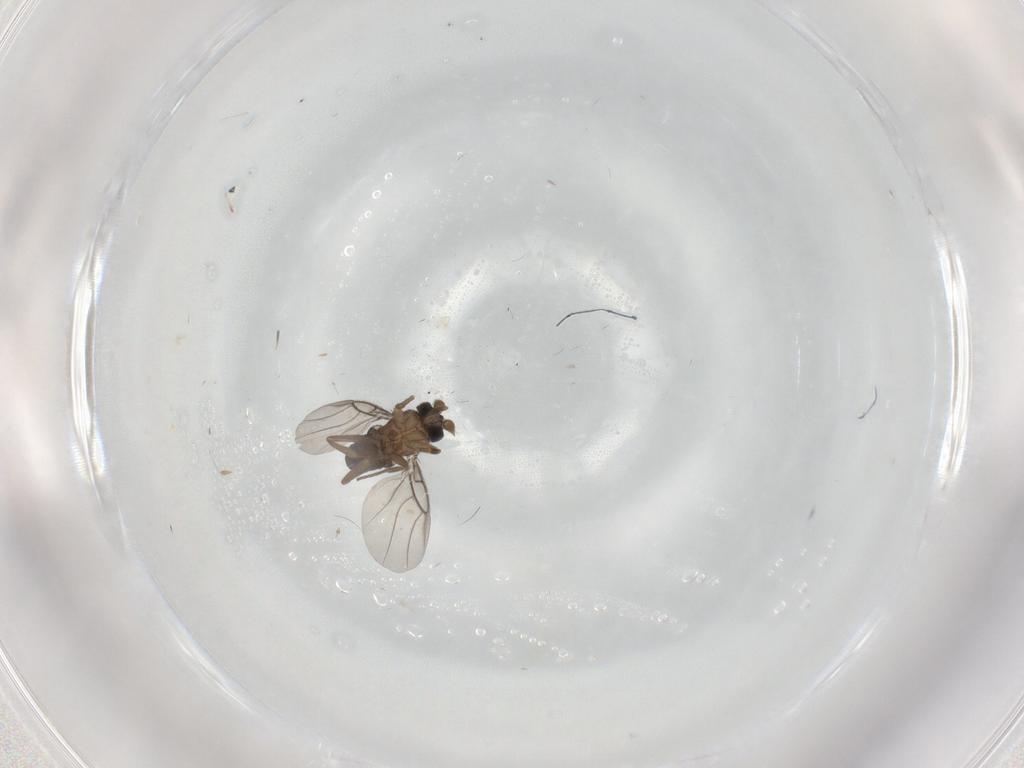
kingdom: Animalia
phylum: Arthropoda
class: Insecta
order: Diptera
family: Phoridae
